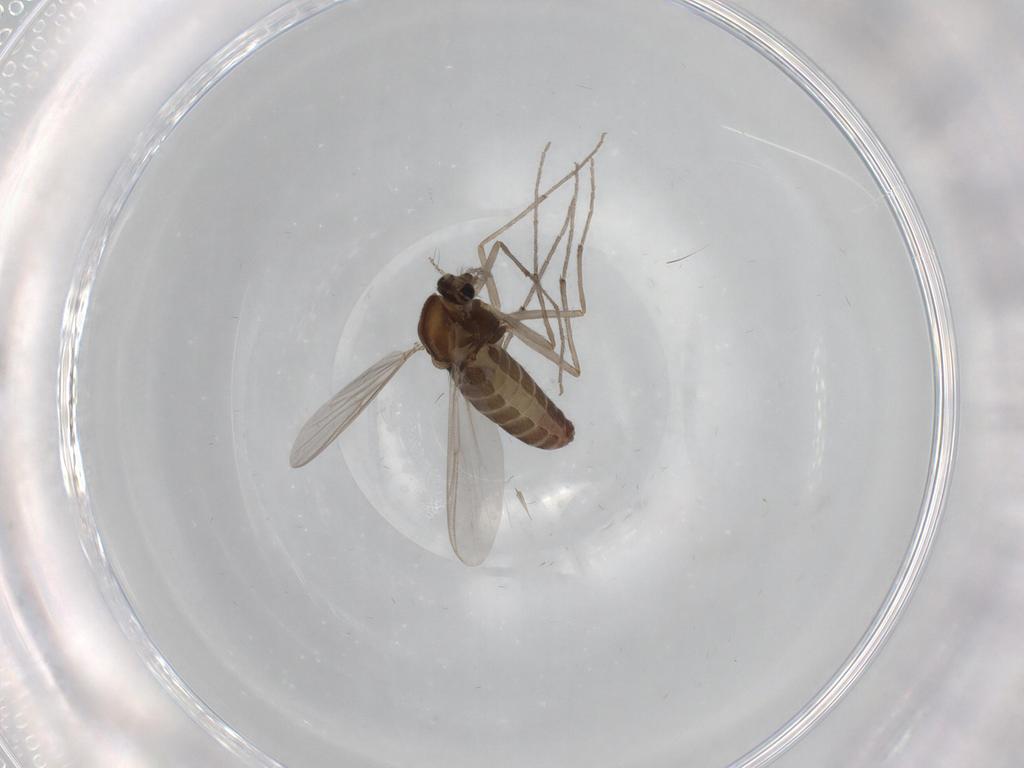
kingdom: Animalia
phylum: Arthropoda
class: Insecta
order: Diptera
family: Chironomidae
